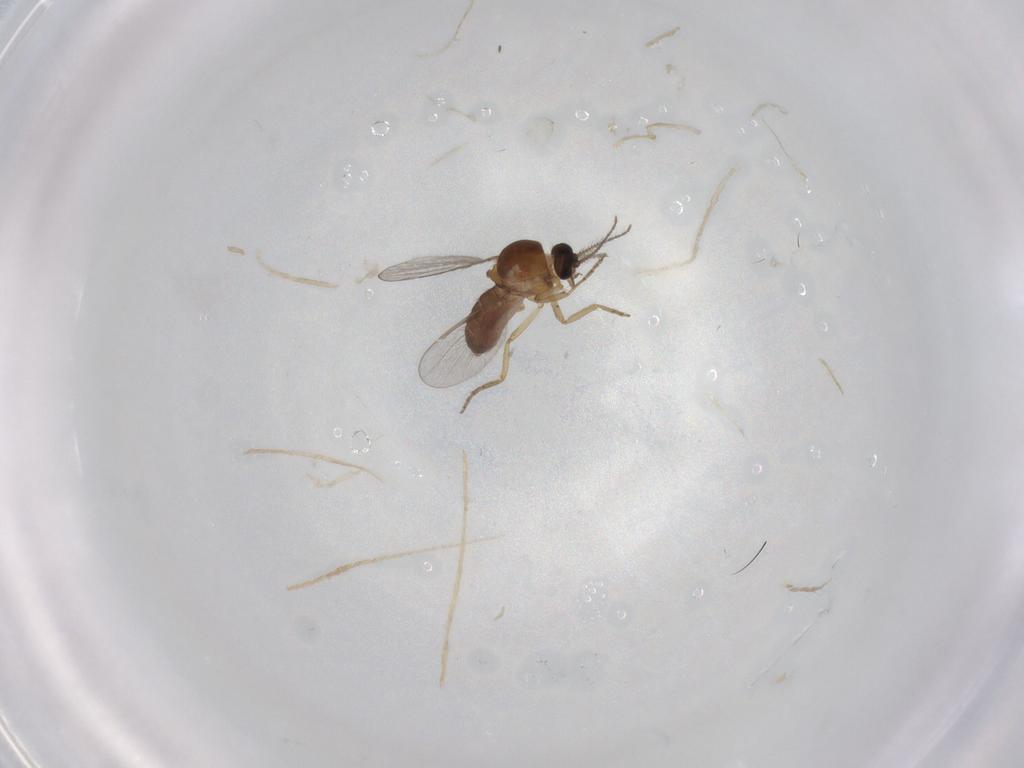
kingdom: Animalia
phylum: Arthropoda
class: Insecta
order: Diptera
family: Ceratopogonidae
